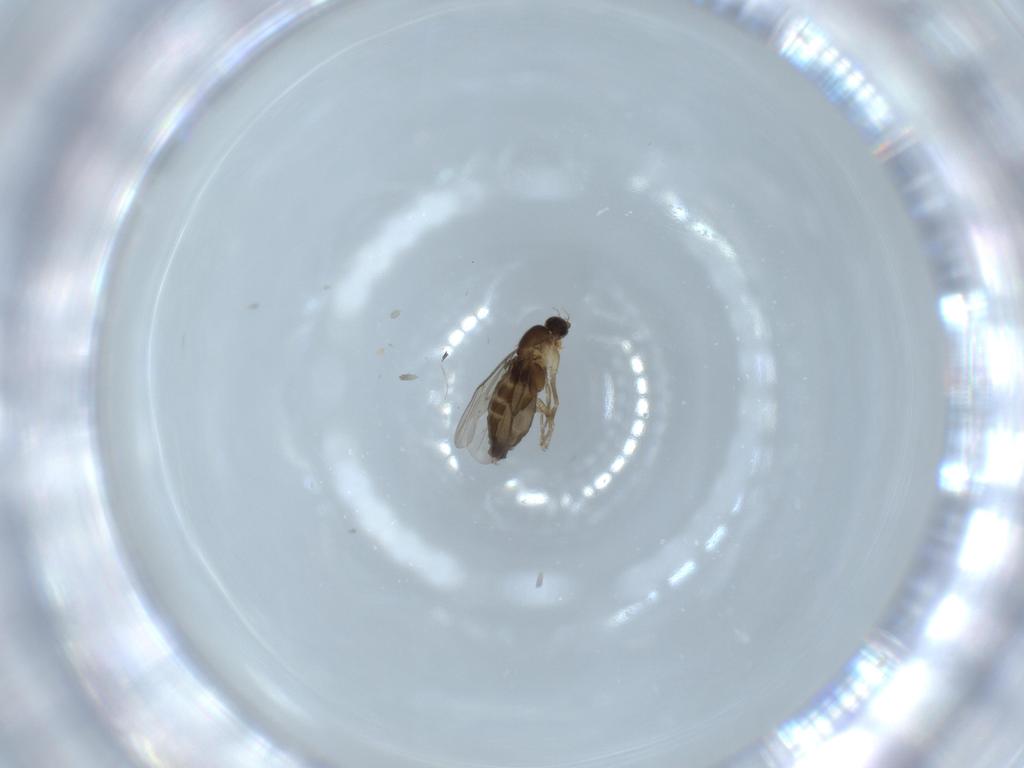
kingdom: Animalia
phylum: Arthropoda
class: Insecta
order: Diptera
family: Phoridae
